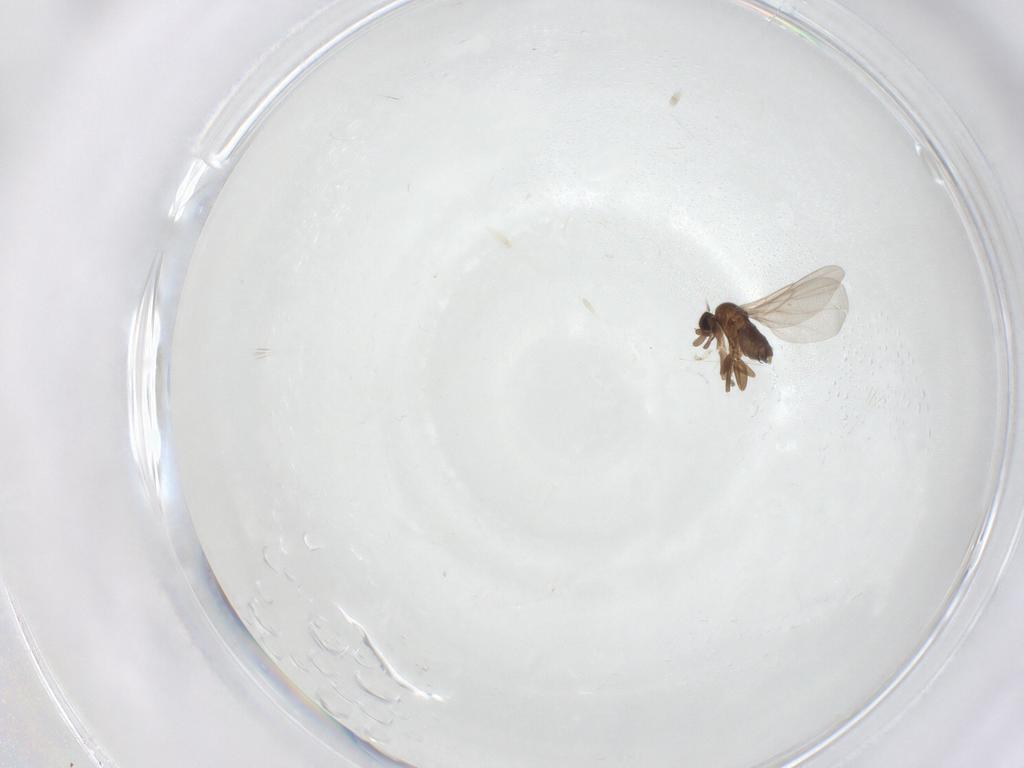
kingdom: Animalia
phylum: Arthropoda
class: Insecta
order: Diptera
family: Phoridae
